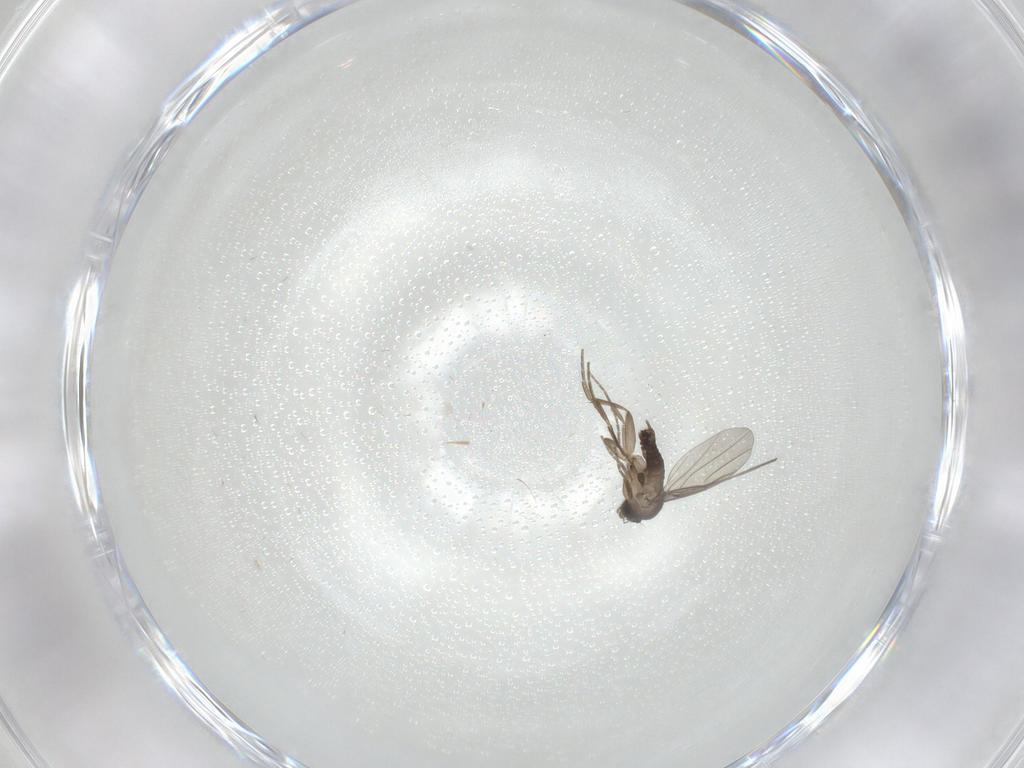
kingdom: Animalia
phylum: Arthropoda
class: Insecta
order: Diptera
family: Phoridae
